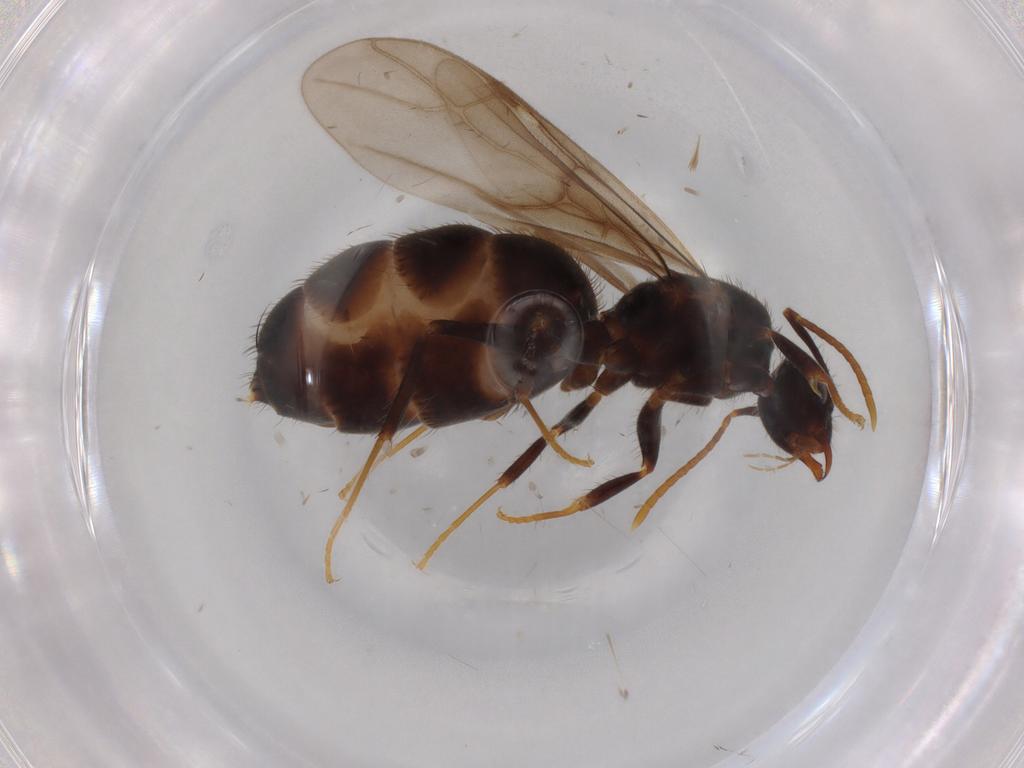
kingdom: Animalia
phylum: Arthropoda
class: Insecta
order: Hymenoptera
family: Formicidae
